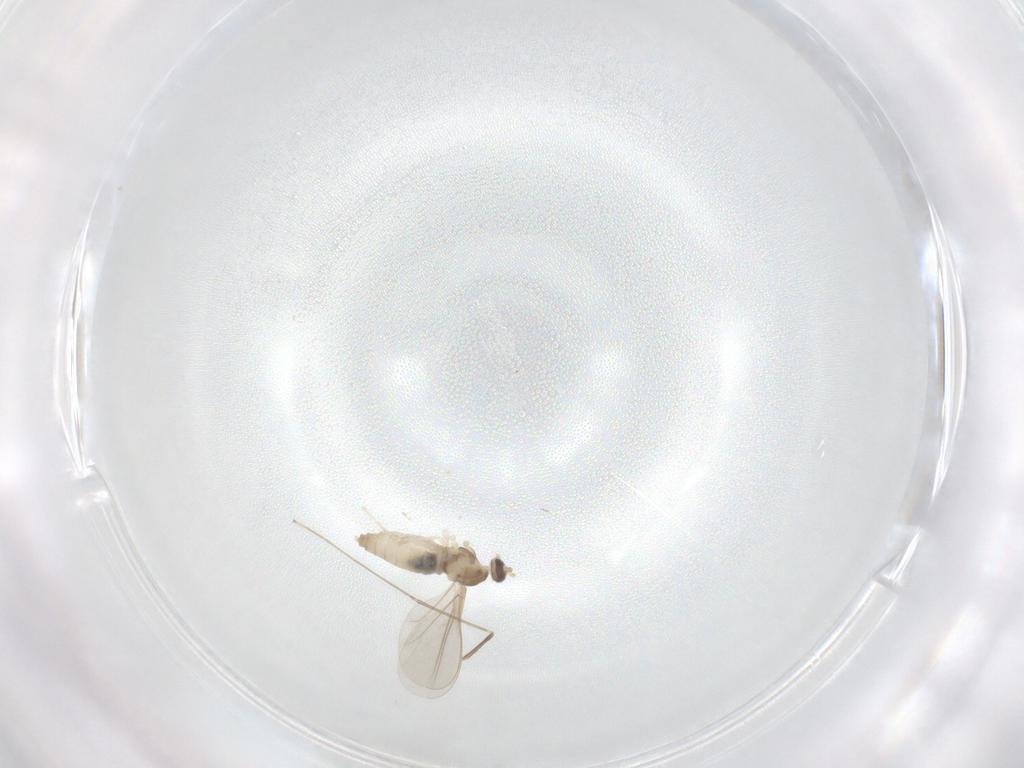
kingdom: Animalia
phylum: Arthropoda
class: Insecta
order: Diptera
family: Cecidomyiidae
